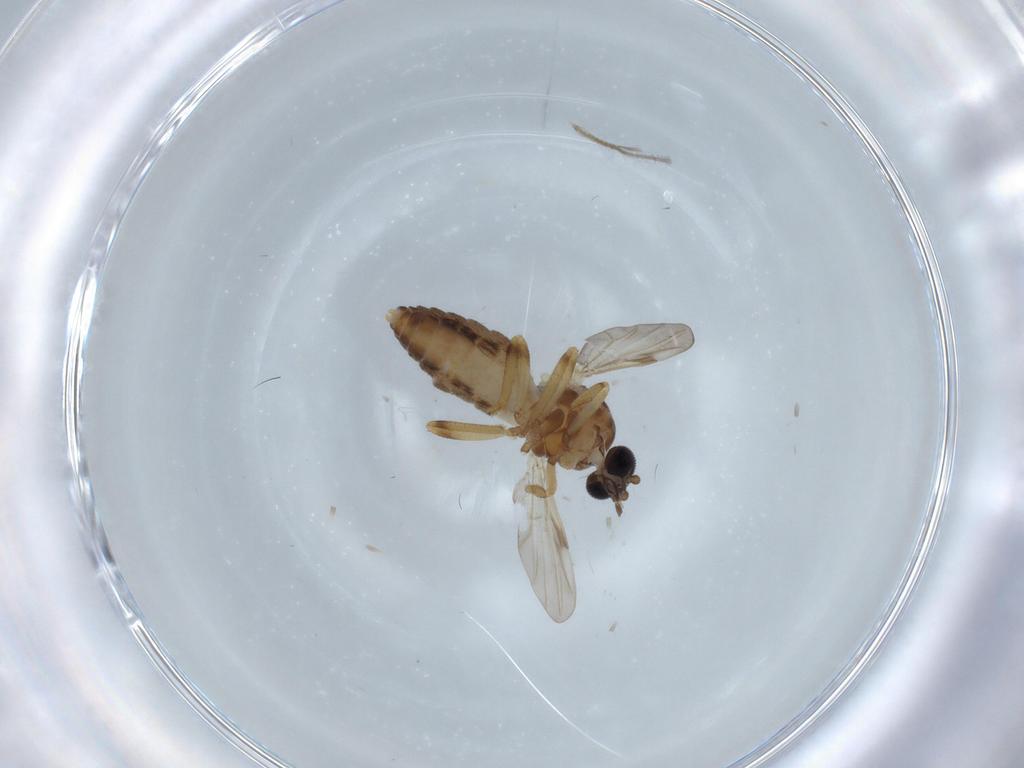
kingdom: Animalia
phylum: Arthropoda
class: Insecta
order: Diptera
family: Ceratopogonidae
